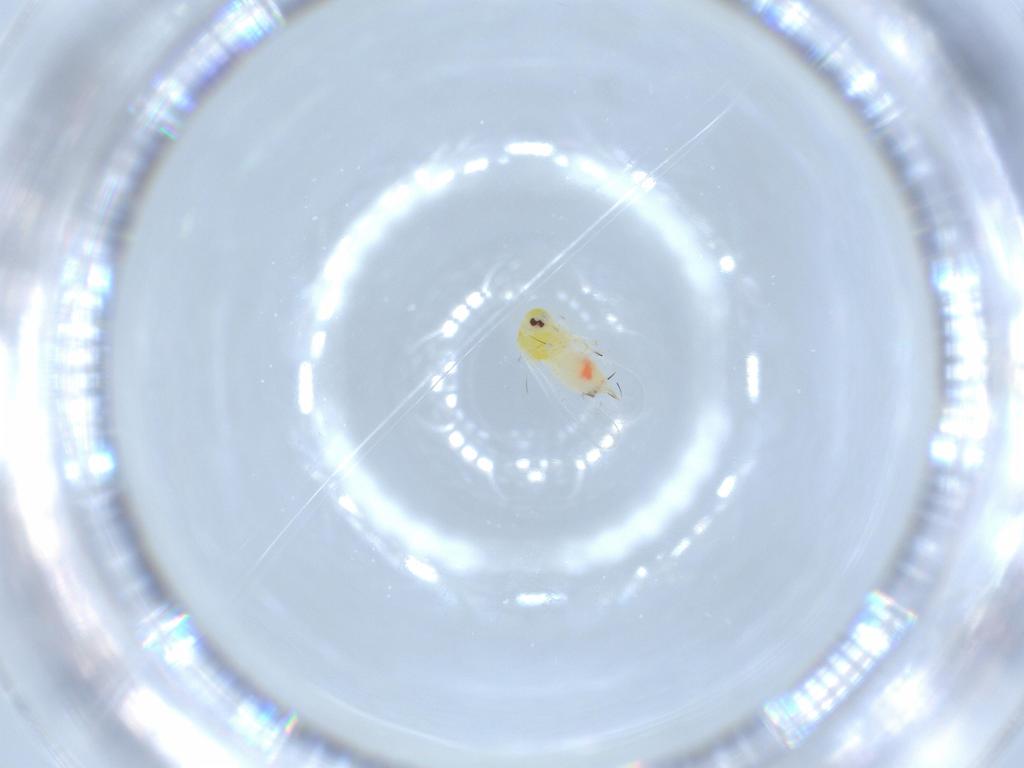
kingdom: Animalia
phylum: Arthropoda
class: Insecta
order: Hemiptera
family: Aleyrodidae
